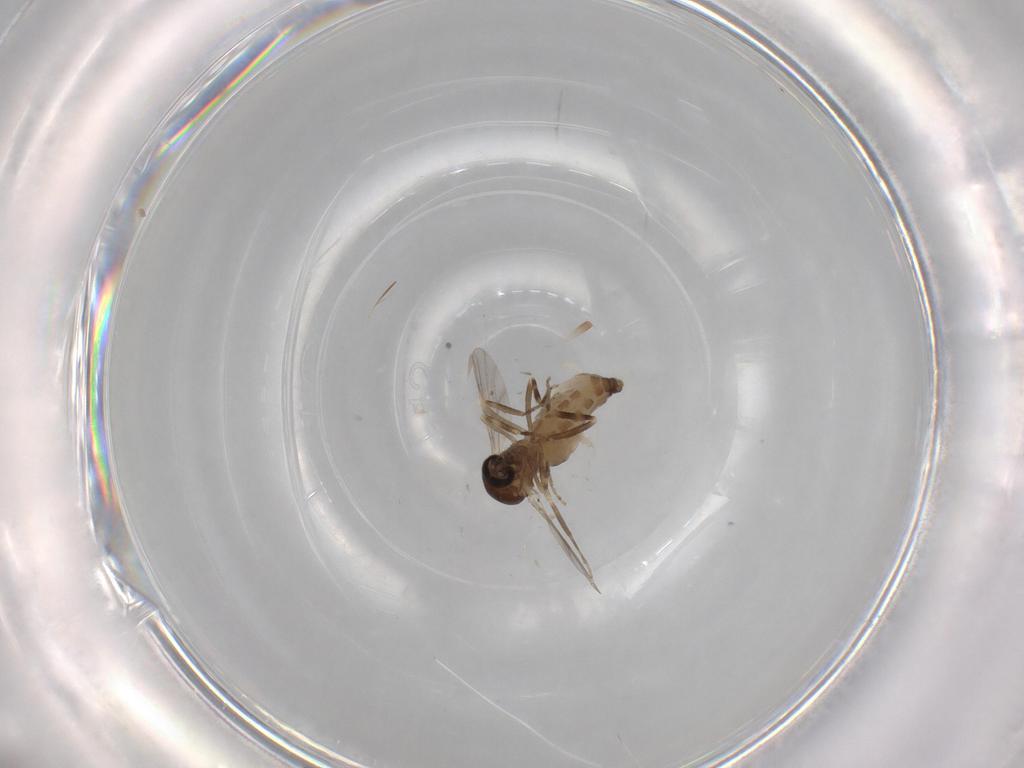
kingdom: Animalia
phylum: Arthropoda
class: Insecta
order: Diptera
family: Ceratopogonidae
